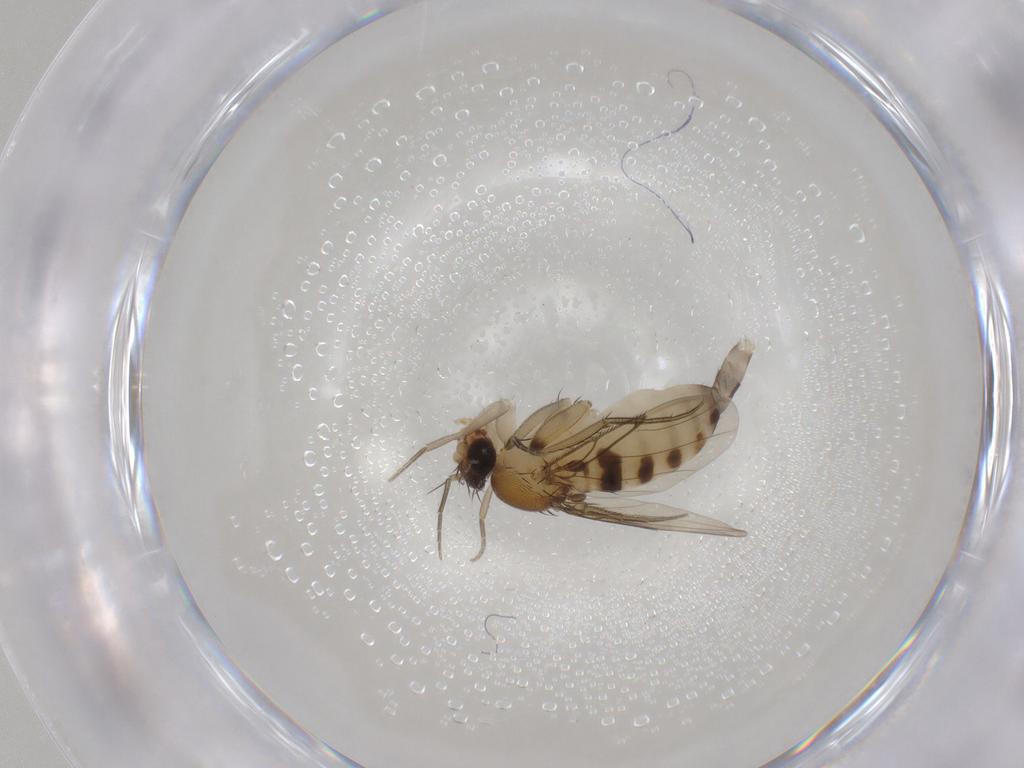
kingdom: Animalia
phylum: Arthropoda
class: Insecta
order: Diptera
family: Phoridae
